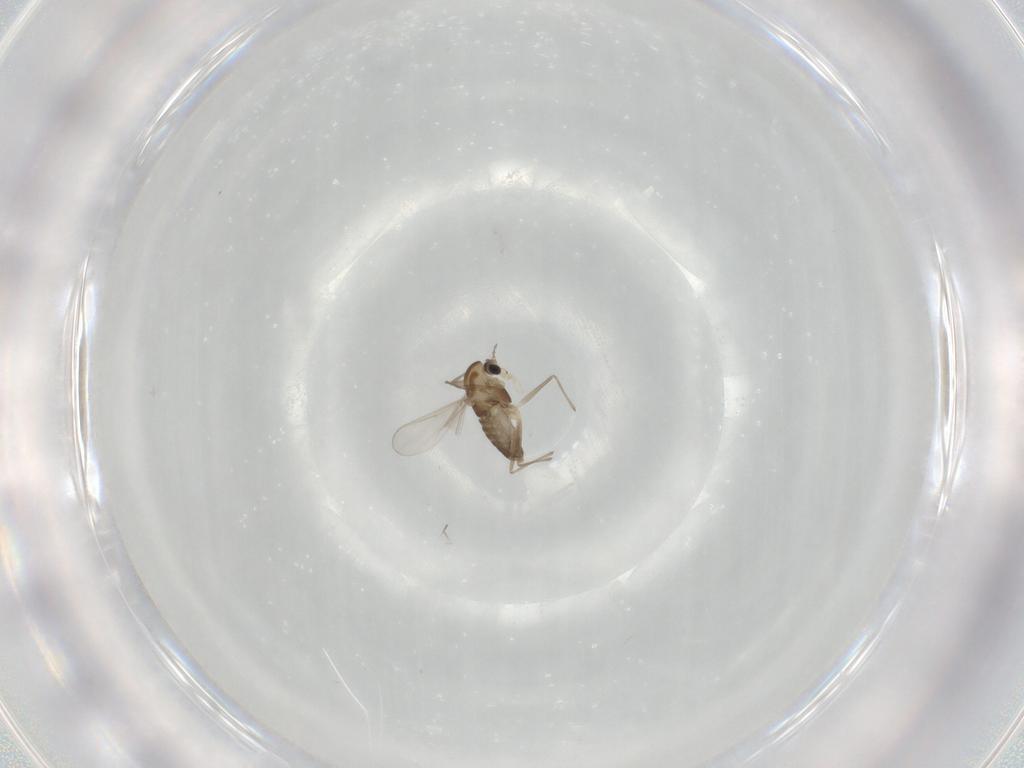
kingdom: Animalia
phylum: Arthropoda
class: Insecta
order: Diptera
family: Chironomidae
